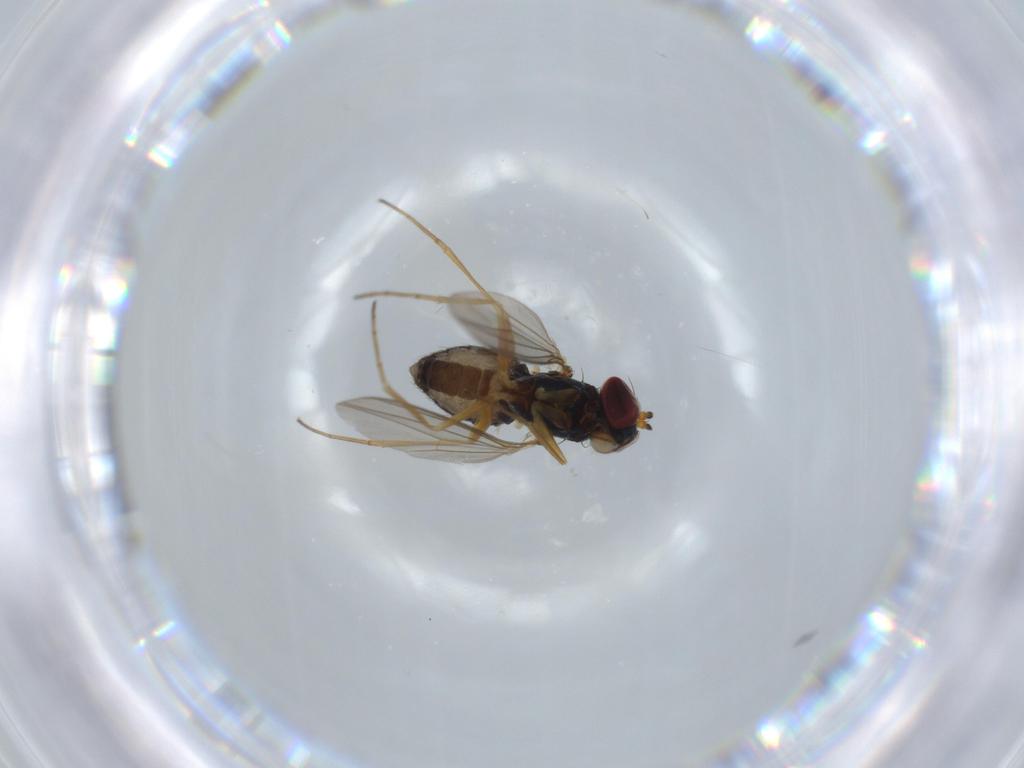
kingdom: Animalia
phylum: Arthropoda
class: Insecta
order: Diptera
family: Dolichopodidae
